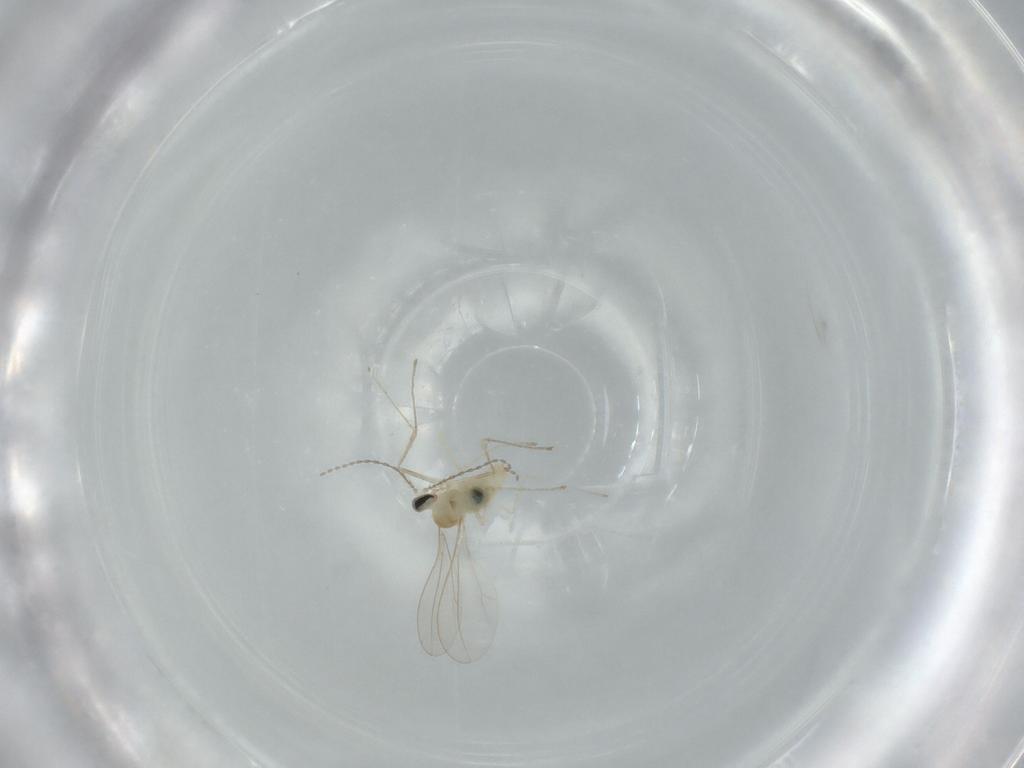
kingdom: Animalia
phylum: Arthropoda
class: Insecta
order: Diptera
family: Cecidomyiidae
